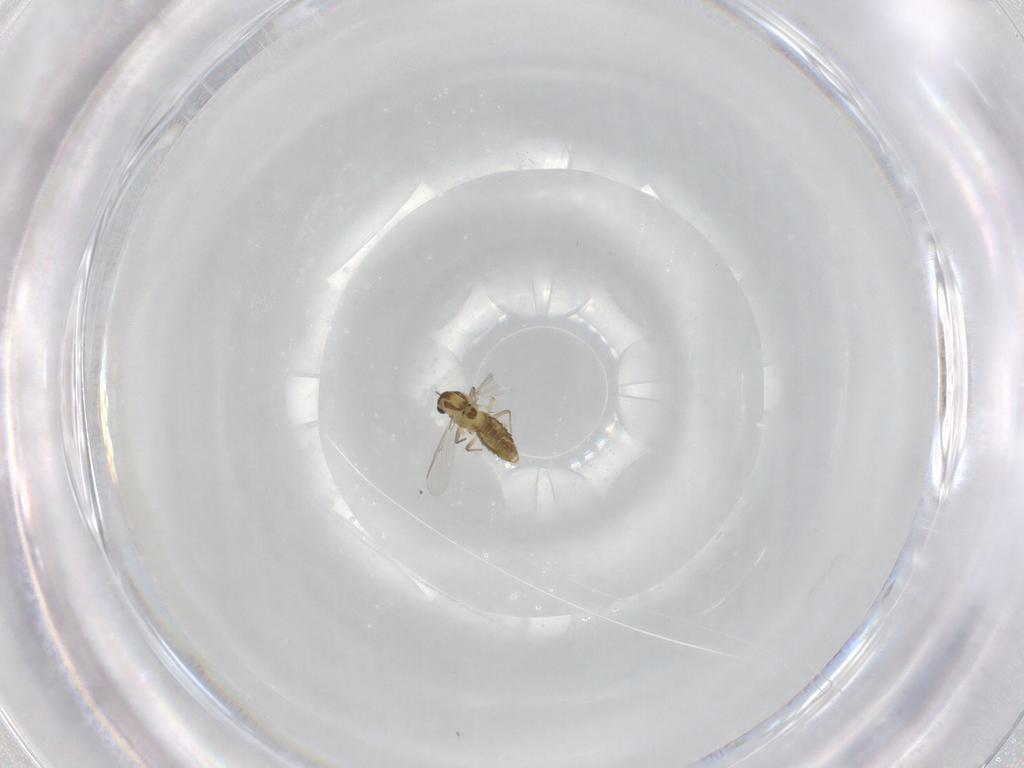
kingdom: Animalia
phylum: Arthropoda
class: Insecta
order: Diptera
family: Chironomidae
